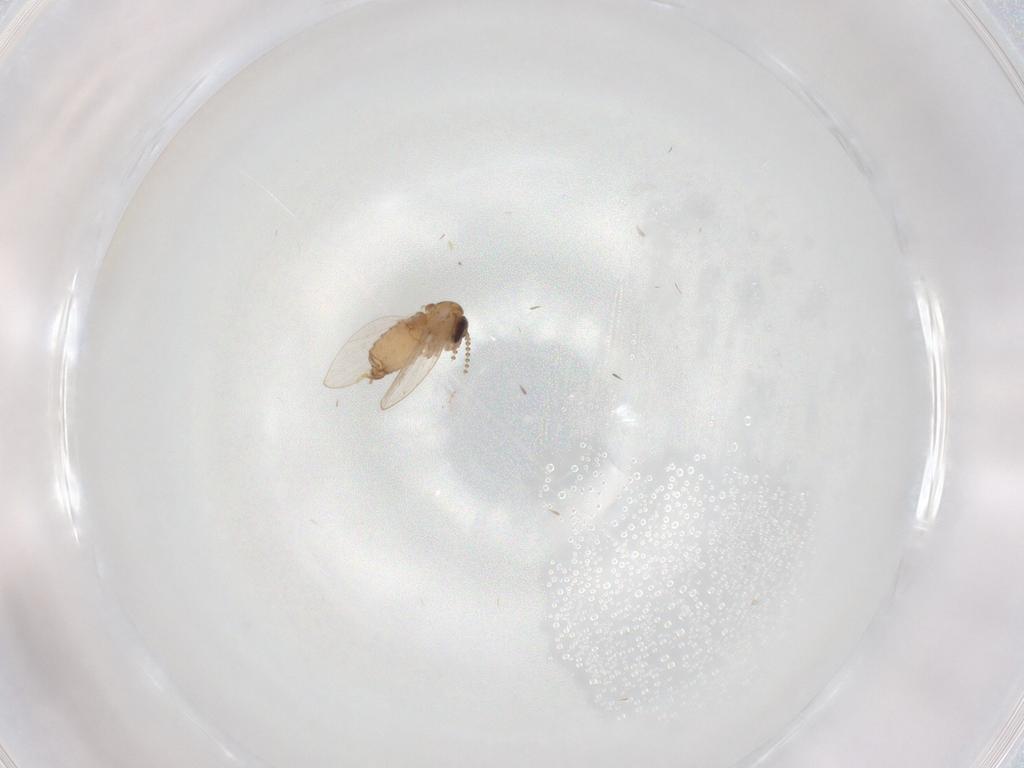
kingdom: Animalia
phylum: Arthropoda
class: Insecta
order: Diptera
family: Psychodidae
